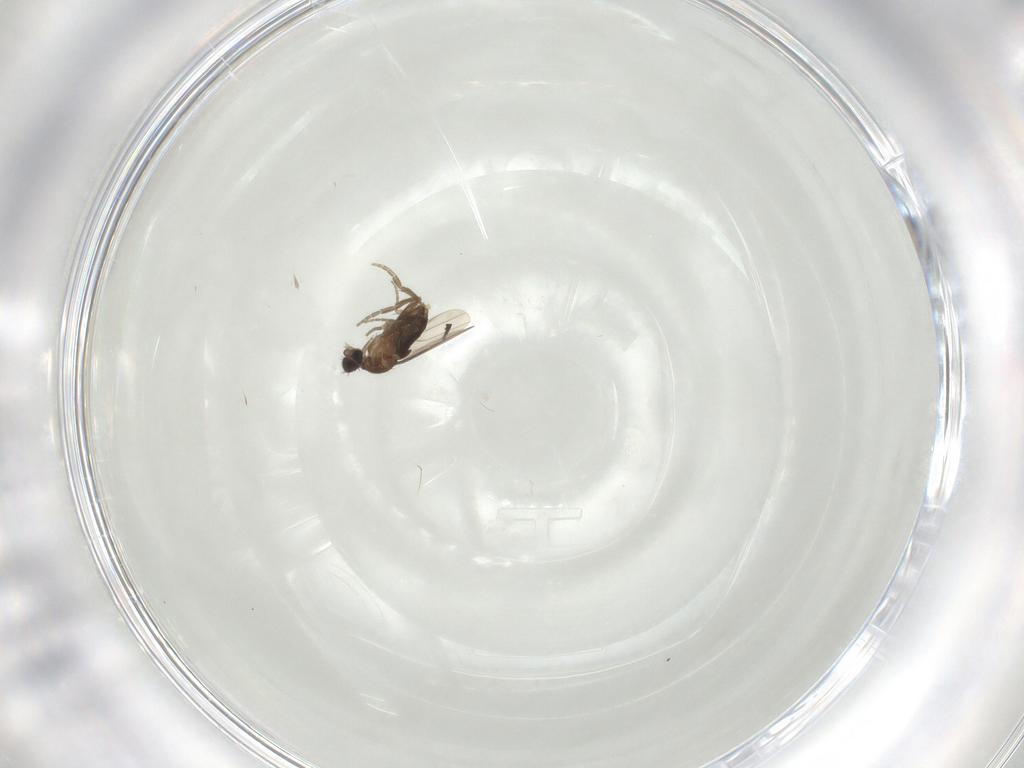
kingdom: Animalia
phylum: Arthropoda
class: Insecta
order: Diptera
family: Phoridae
